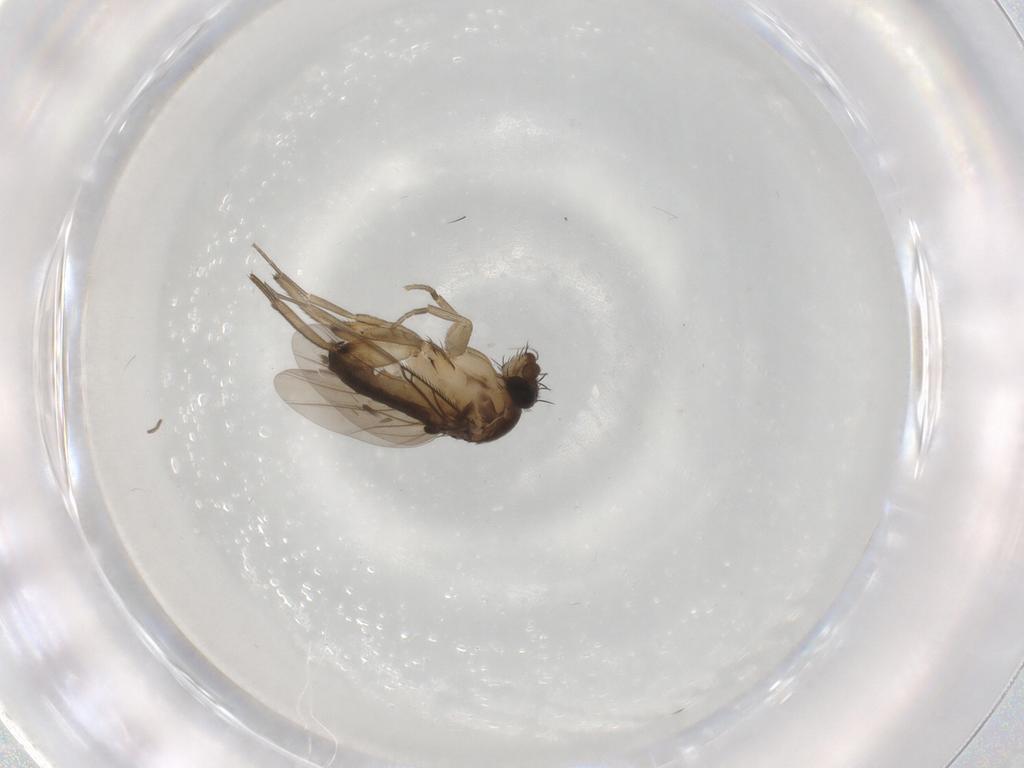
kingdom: Animalia
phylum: Arthropoda
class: Insecta
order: Diptera
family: Phoridae
